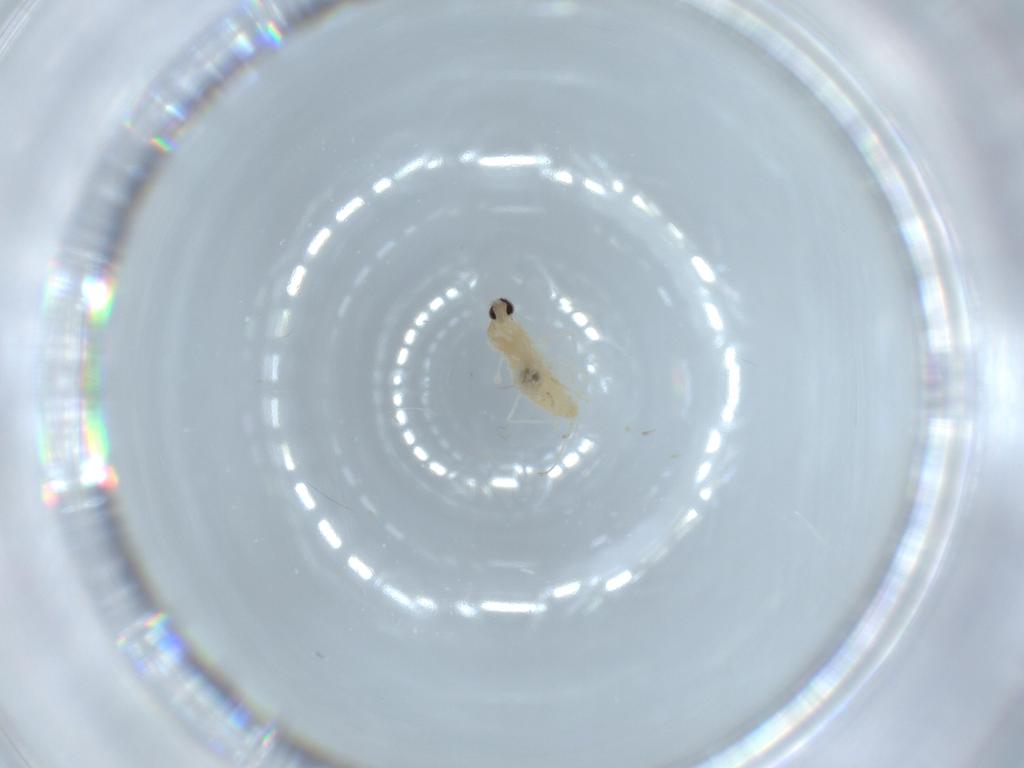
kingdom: Animalia
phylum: Arthropoda
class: Insecta
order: Diptera
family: Cecidomyiidae
